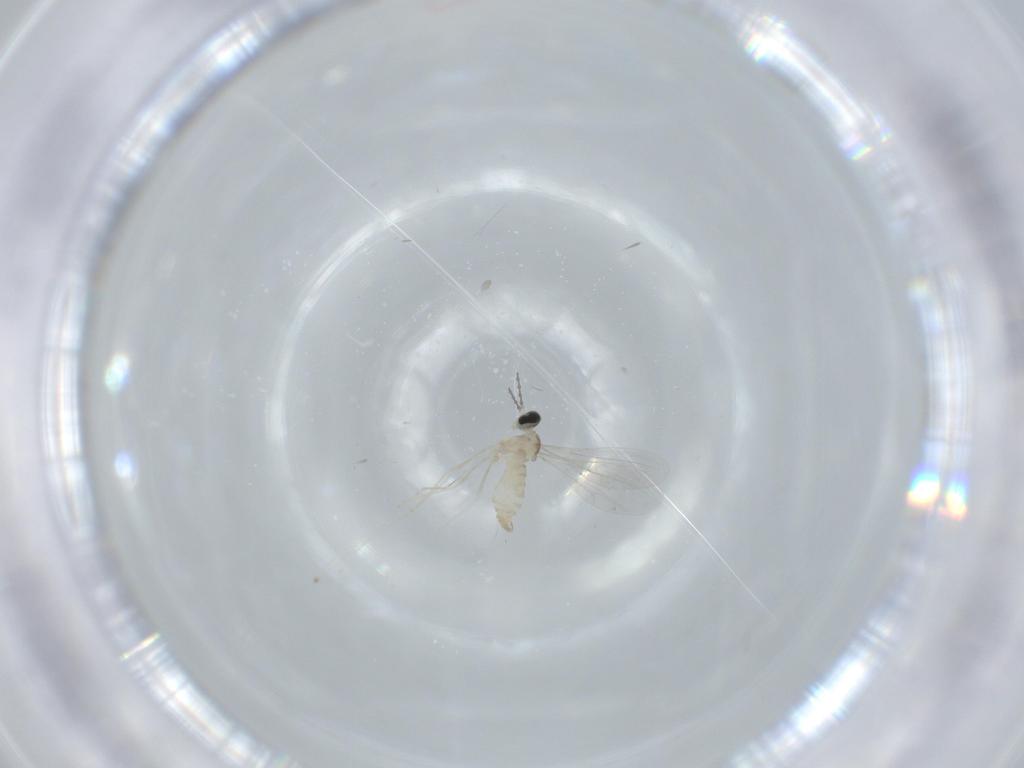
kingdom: Animalia
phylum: Arthropoda
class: Insecta
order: Diptera
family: Cecidomyiidae
